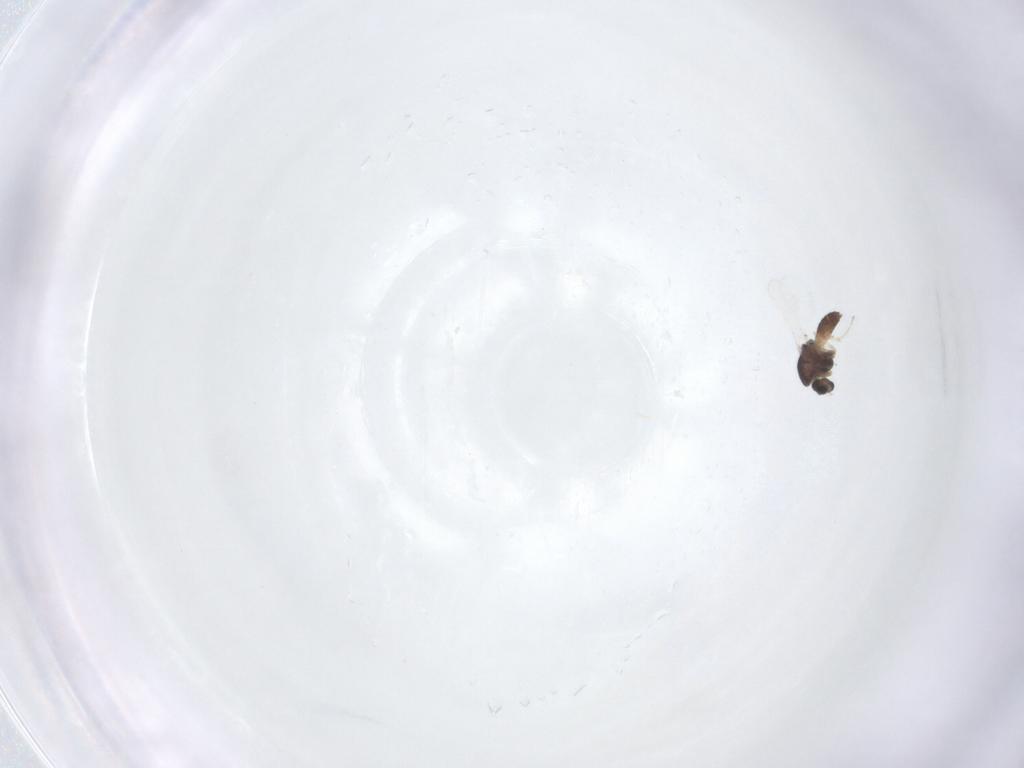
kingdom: Animalia
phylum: Arthropoda
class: Insecta
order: Diptera
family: Chironomidae
